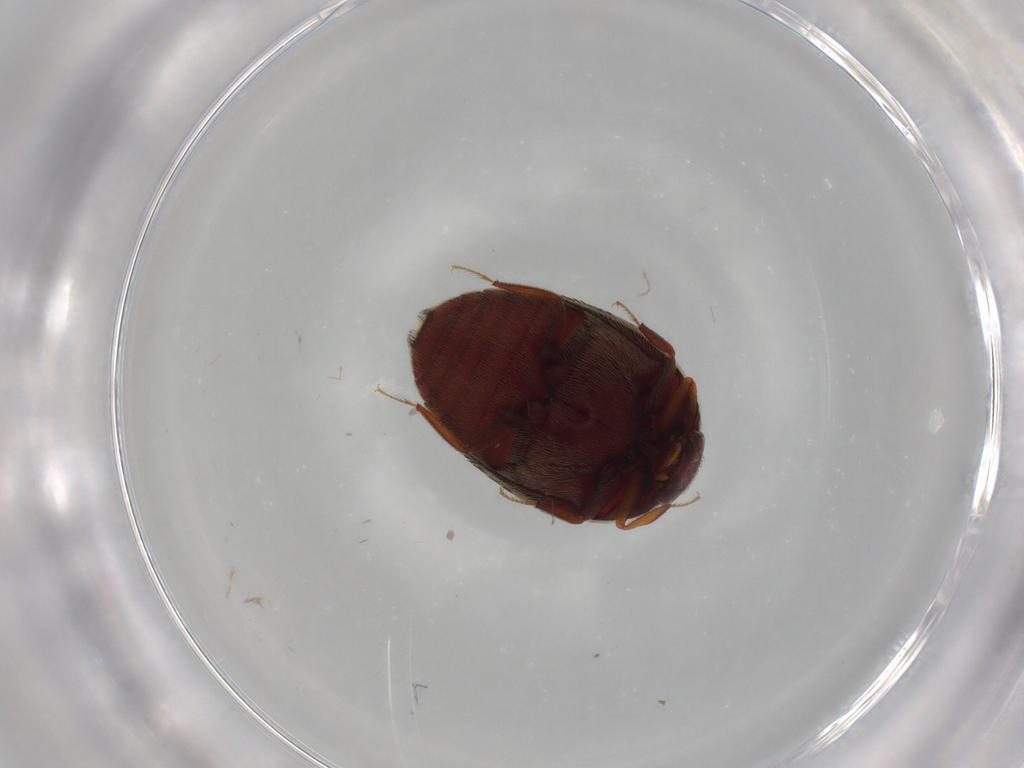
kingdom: Animalia
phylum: Arthropoda
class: Insecta
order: Coleoptera
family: Dermestidae
